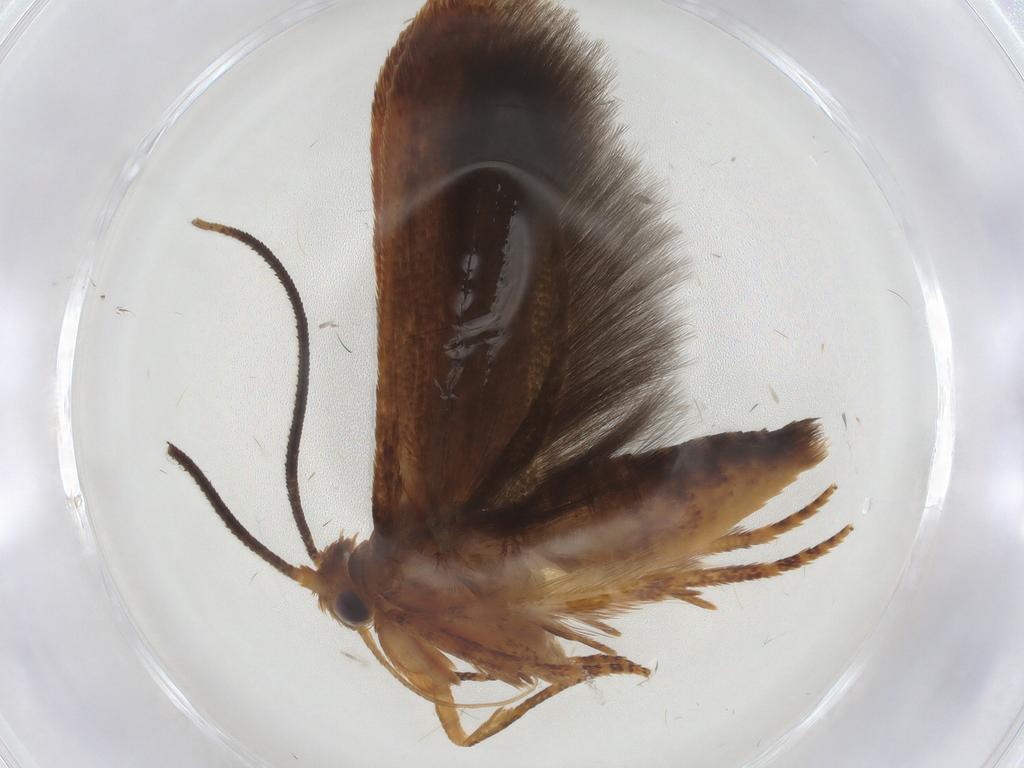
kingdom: Animalia
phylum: Arthropoda
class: Insecta
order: Lepidoptera
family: Coleophoridae
